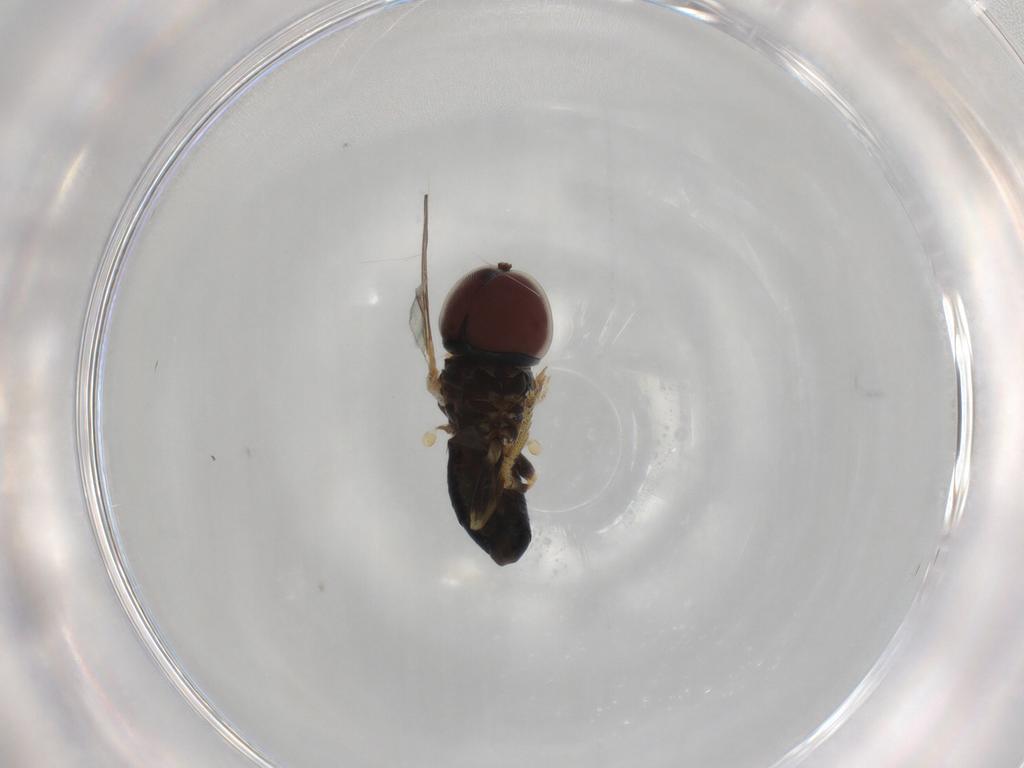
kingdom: Animalia
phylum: Arthropoda
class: Insecta
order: Diptera
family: Pipunculidae
